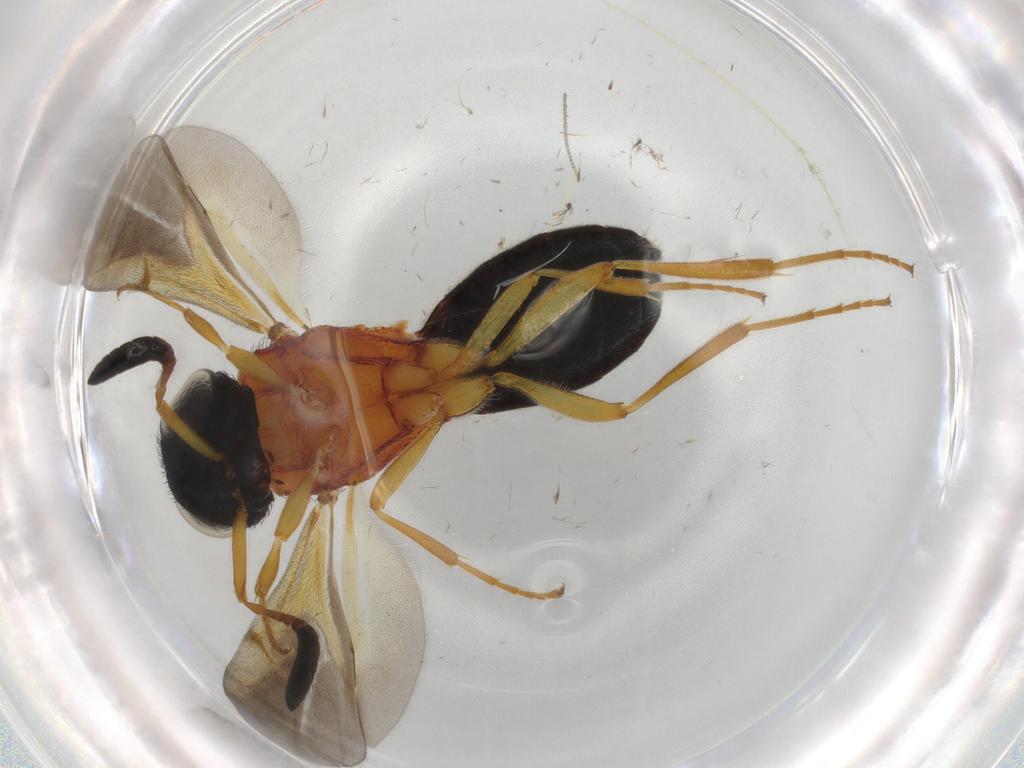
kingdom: Animalia
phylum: Arthropoda
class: Insecta
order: Hymenoptera
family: Scelionidae
